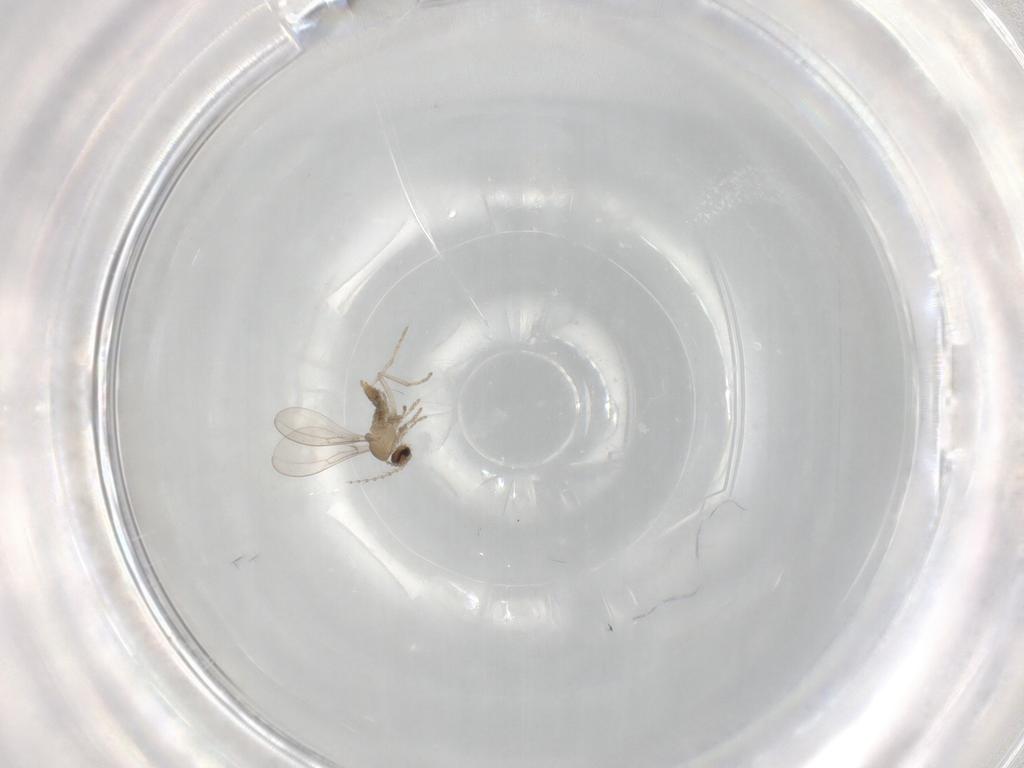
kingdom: Animalia
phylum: Arthropoda
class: Insecta
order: Diptera
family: Cecidomyiidae
